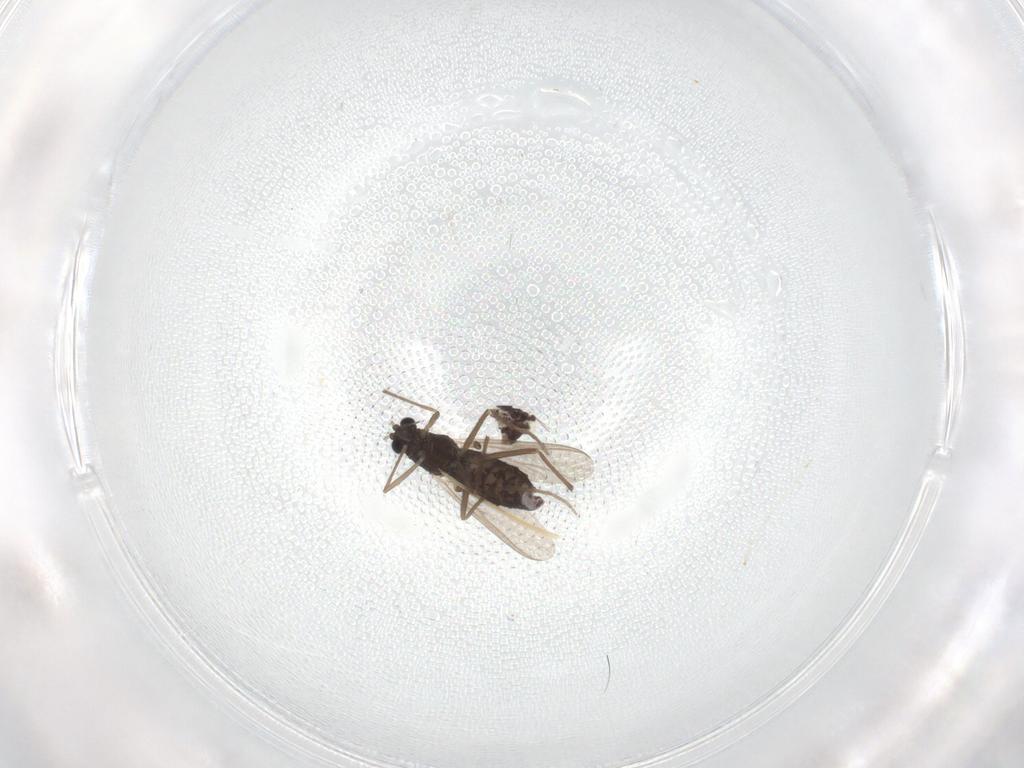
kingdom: Animalia
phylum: Arthropoda
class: Insecta
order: Diptera
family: Chironomidae
